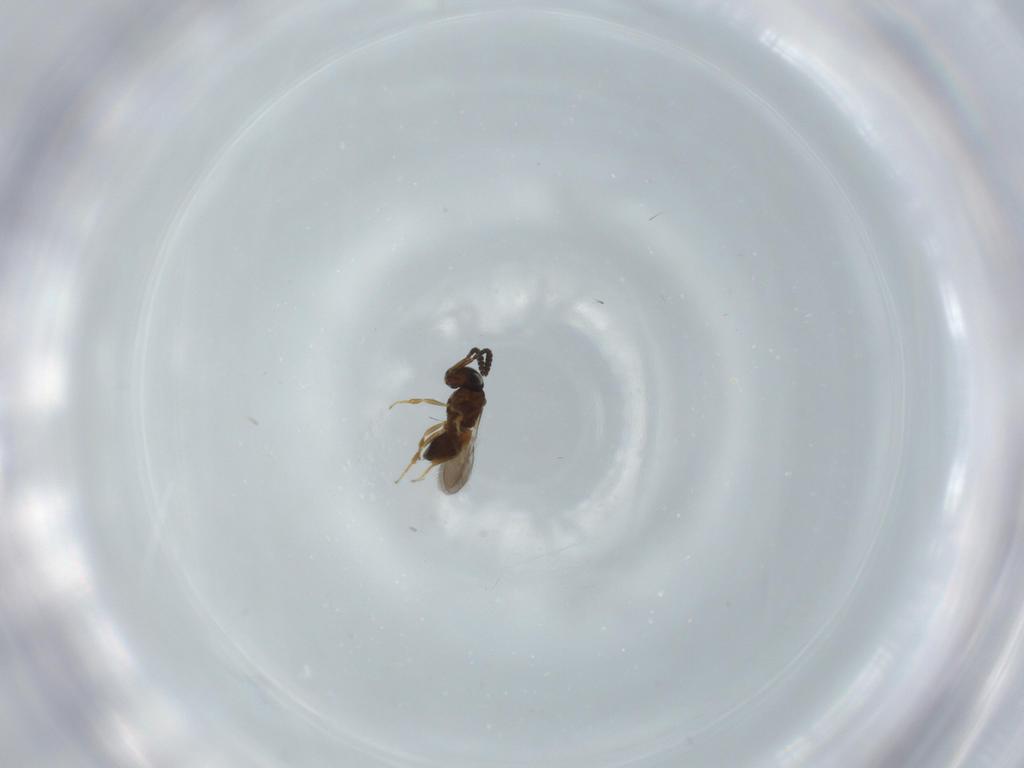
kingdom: Animalia
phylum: Arthropoda
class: Insecta
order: Hymenoptera
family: Scelionidae
